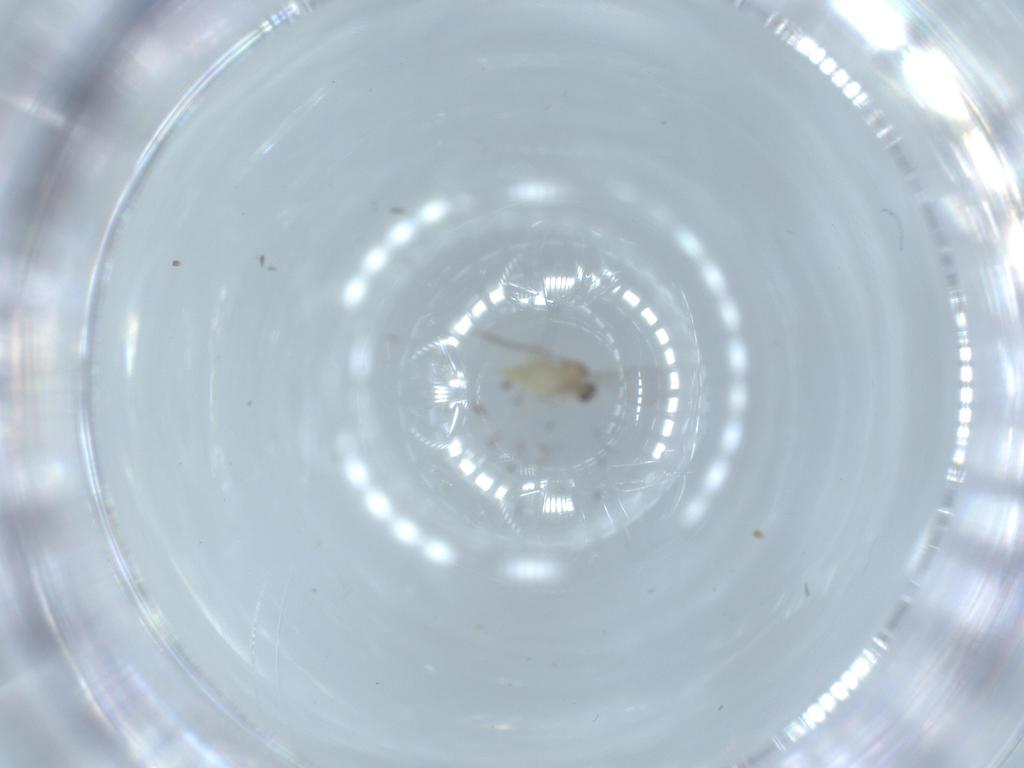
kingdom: Animalia
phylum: Arthropoda
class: Insecta
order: Diptera
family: Cecidomyiidae
